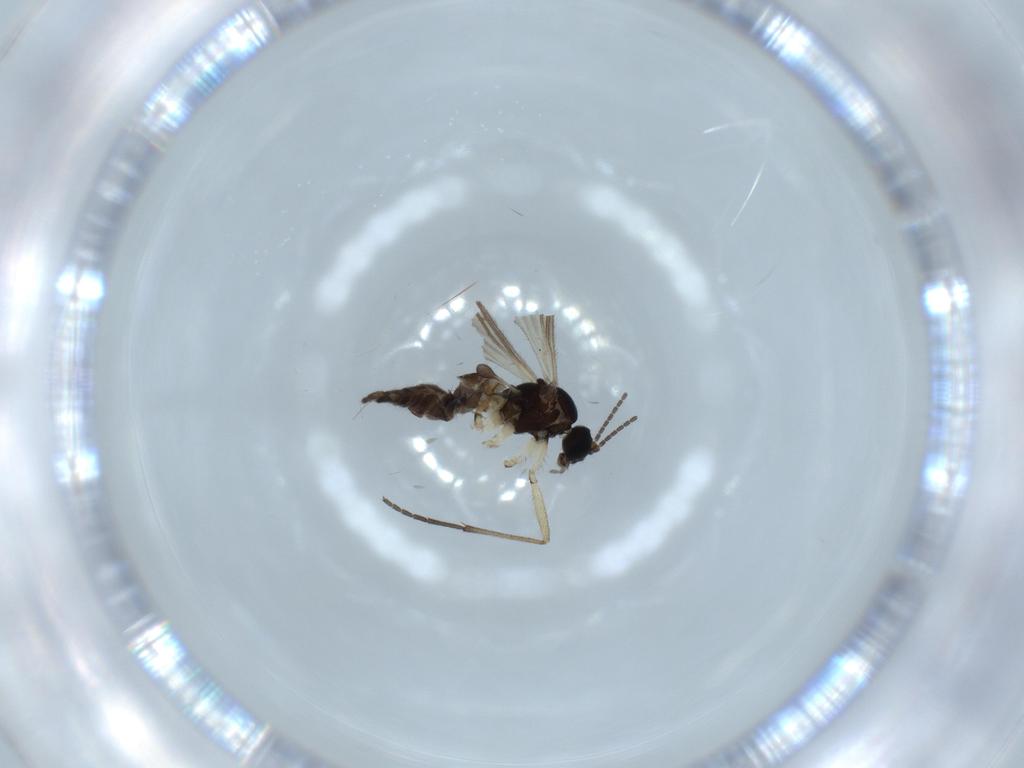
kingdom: Animalia
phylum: Arthropoda
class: Insecta
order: Diptera
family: Sciaridae
